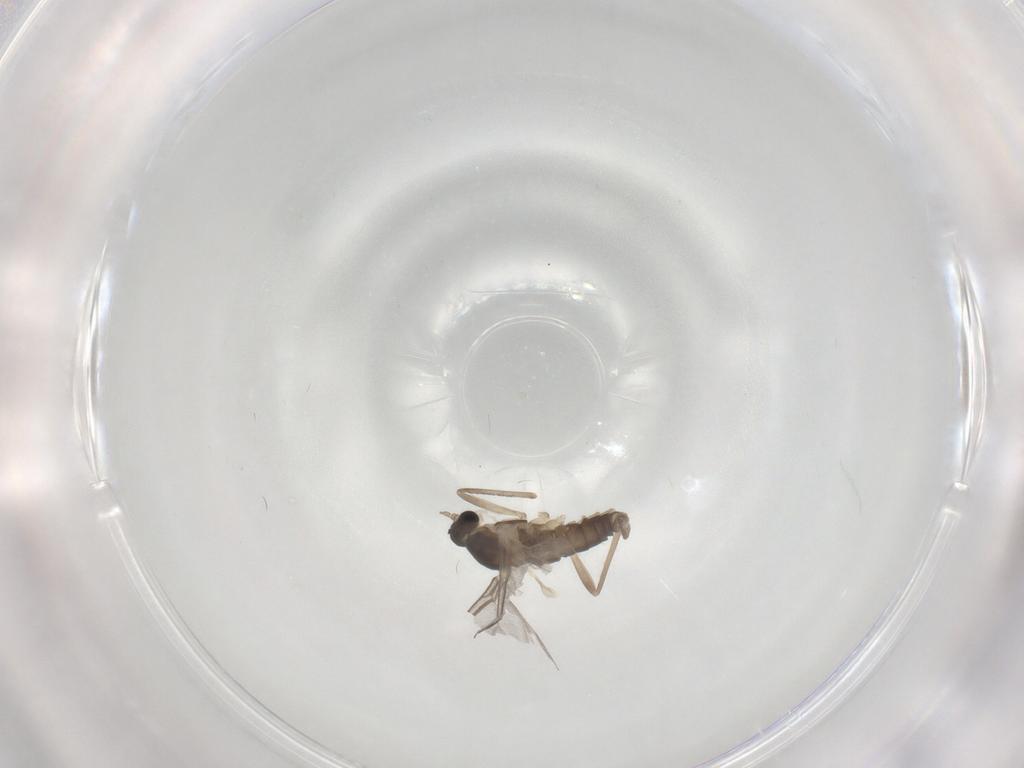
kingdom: Animalia
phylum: Arthropoda
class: Insecta
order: Diptera
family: Cecidomyiidae
